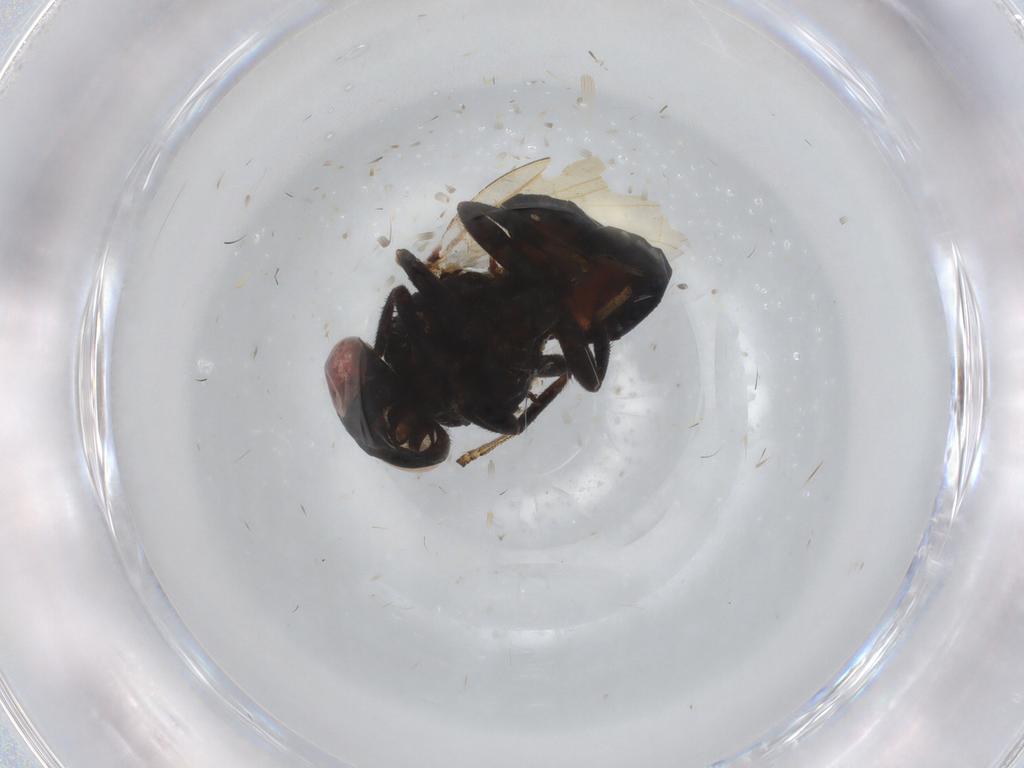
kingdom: Animalia
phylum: Arthropoda
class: Insecta
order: Diptera
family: Lonchaeidae
